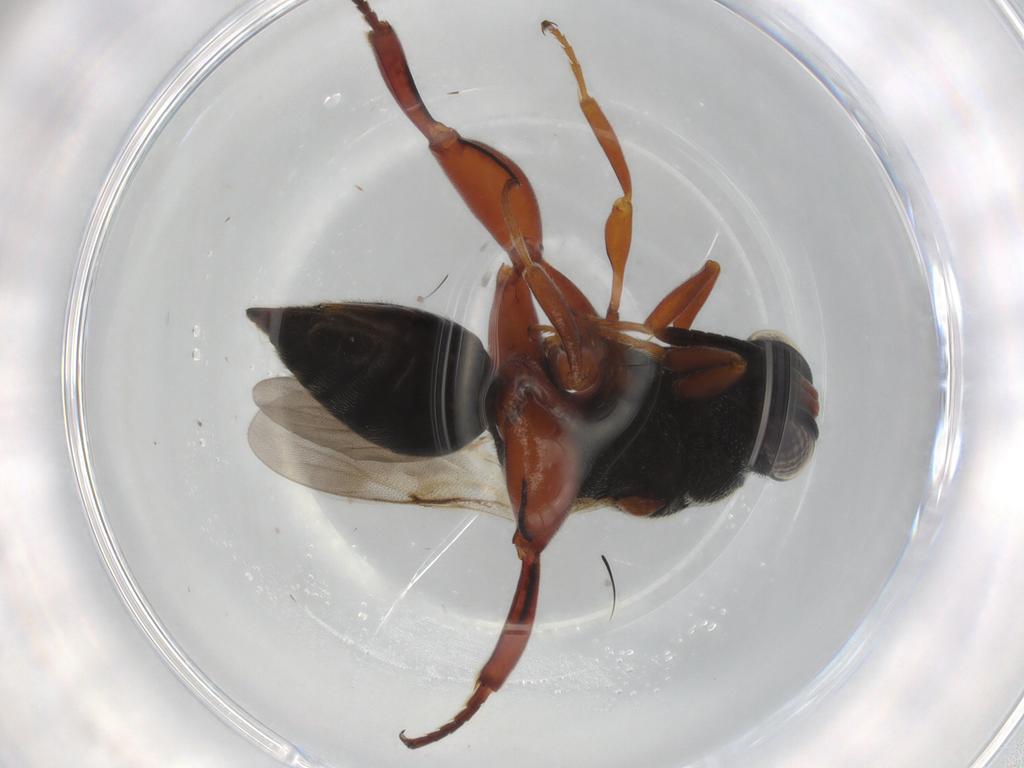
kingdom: Animalia
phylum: Arthropoda
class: Insecta
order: Hymenoptera
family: Chalcididae
